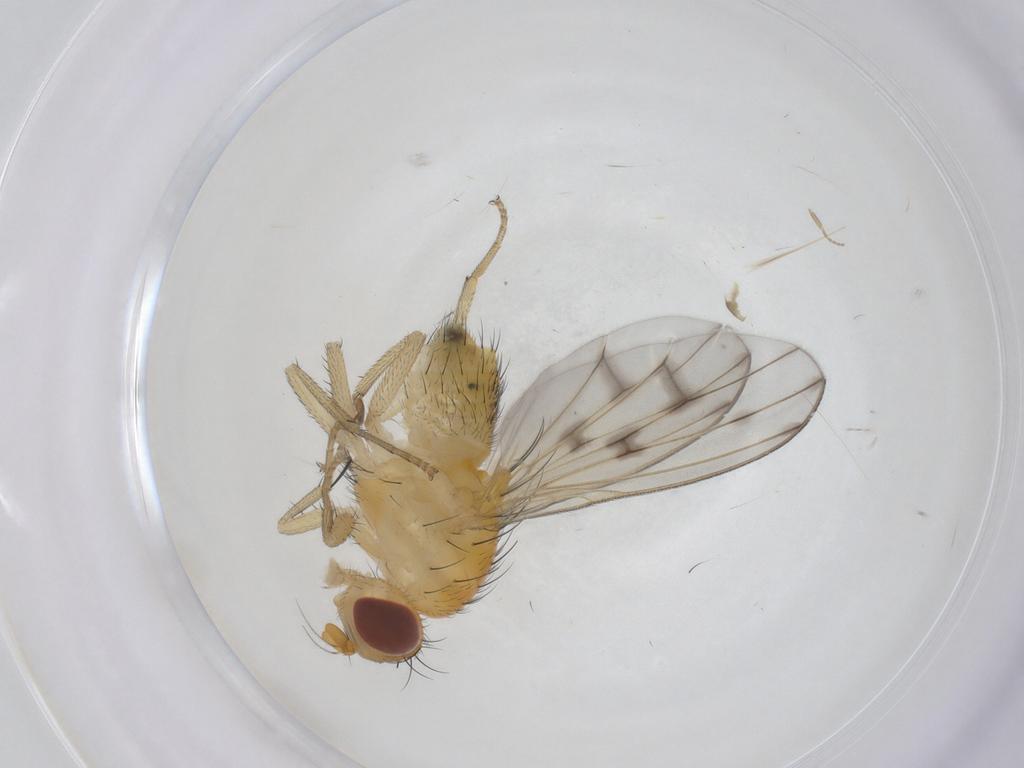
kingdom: Animalia
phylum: Arthropoda
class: Insecta
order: Diptera
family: Phoridae
